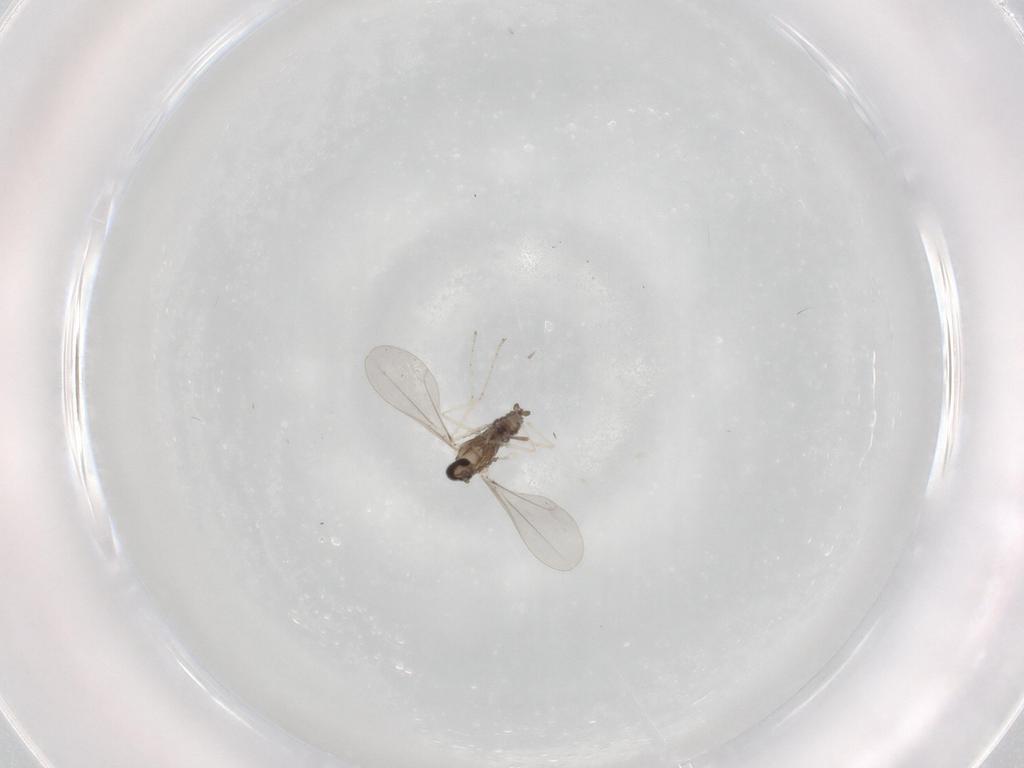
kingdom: Animalia
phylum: Arthropoda
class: Insecta
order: Diptera
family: Cecidomyiidae
